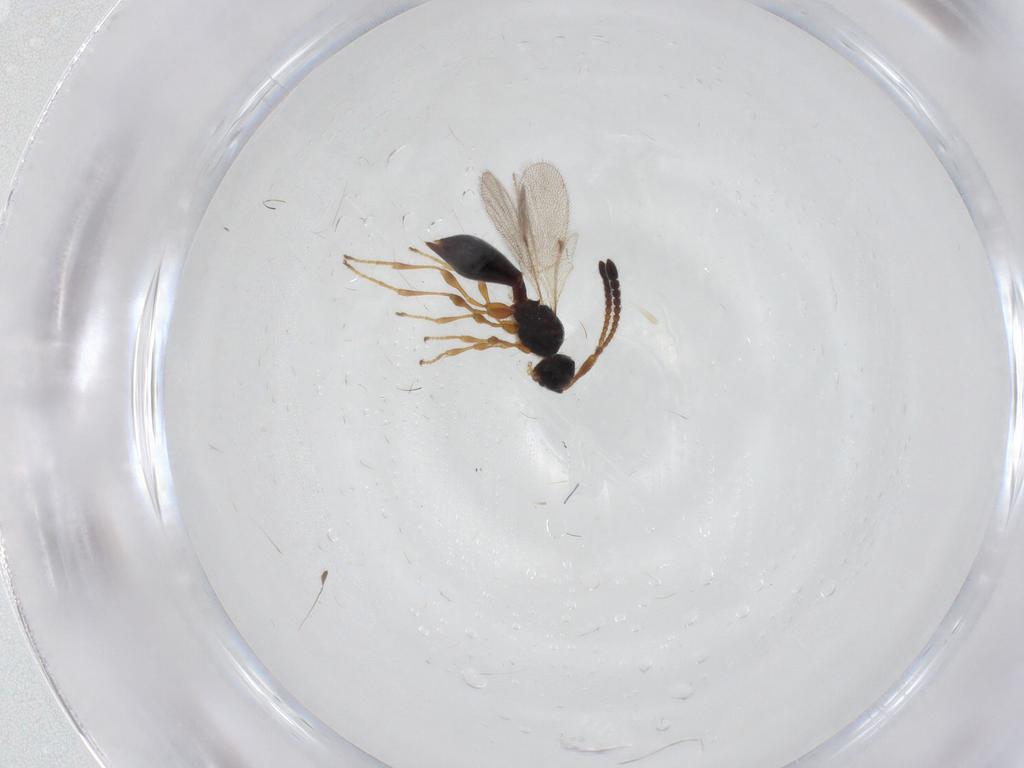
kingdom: Animalia
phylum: Arthropoda
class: Insecta
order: Hymenoptera
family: Diapriidae
